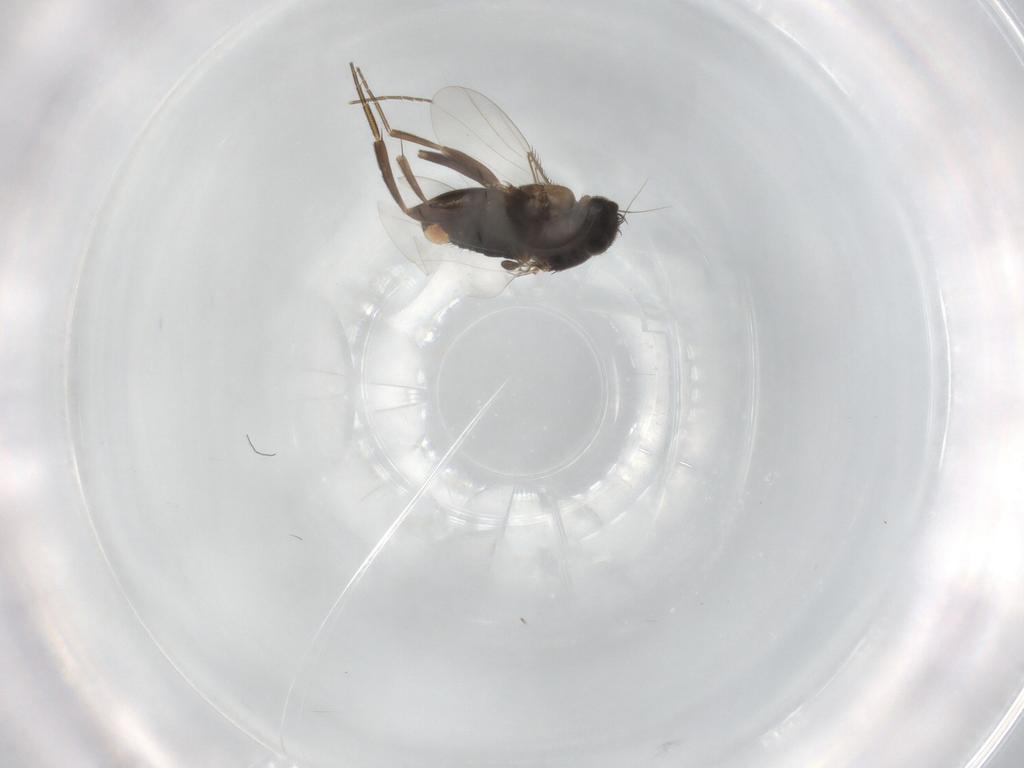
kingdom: Animalia
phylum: Arthropoda
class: Insecta
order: Diptera
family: Phoridae
